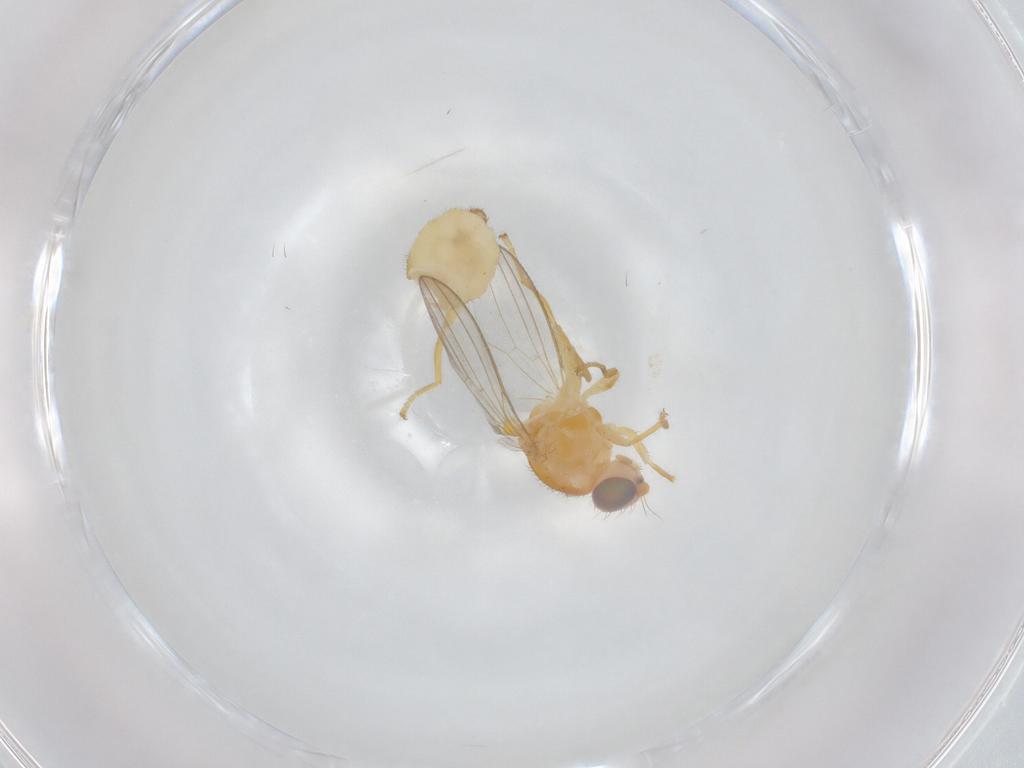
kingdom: Animalia
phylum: Arthropoda
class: Insecta
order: Diptera
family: Chyromyidae
